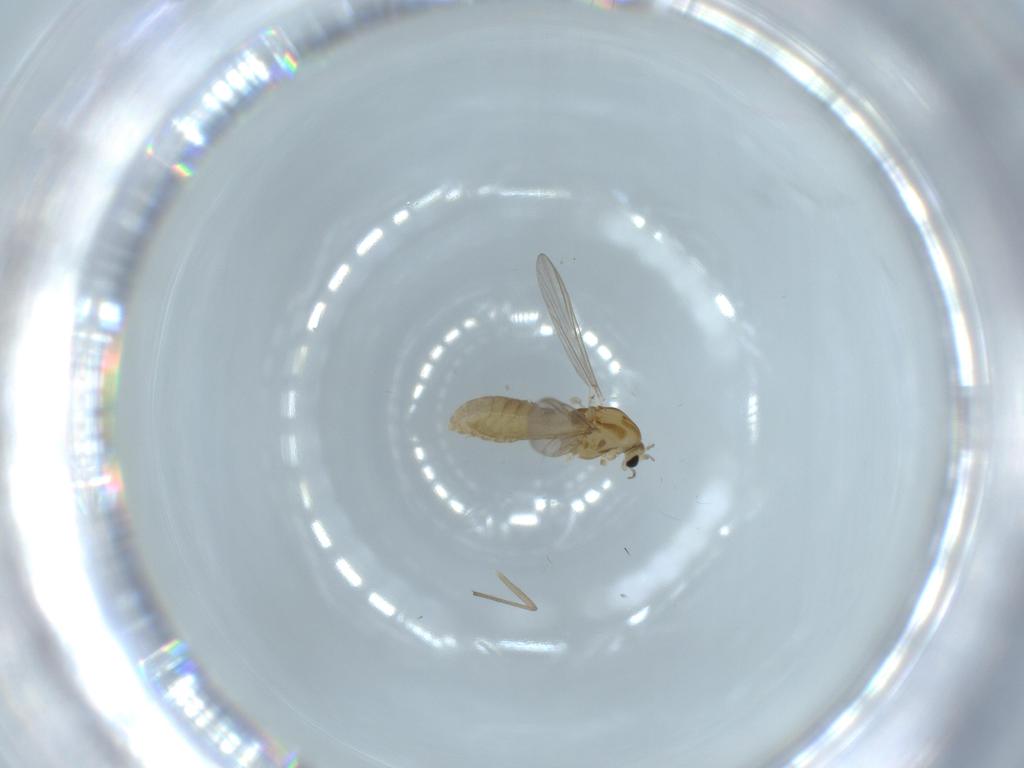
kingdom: Animalia
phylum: Arthropoda
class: Insecta
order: Diptera
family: Chironomidae
